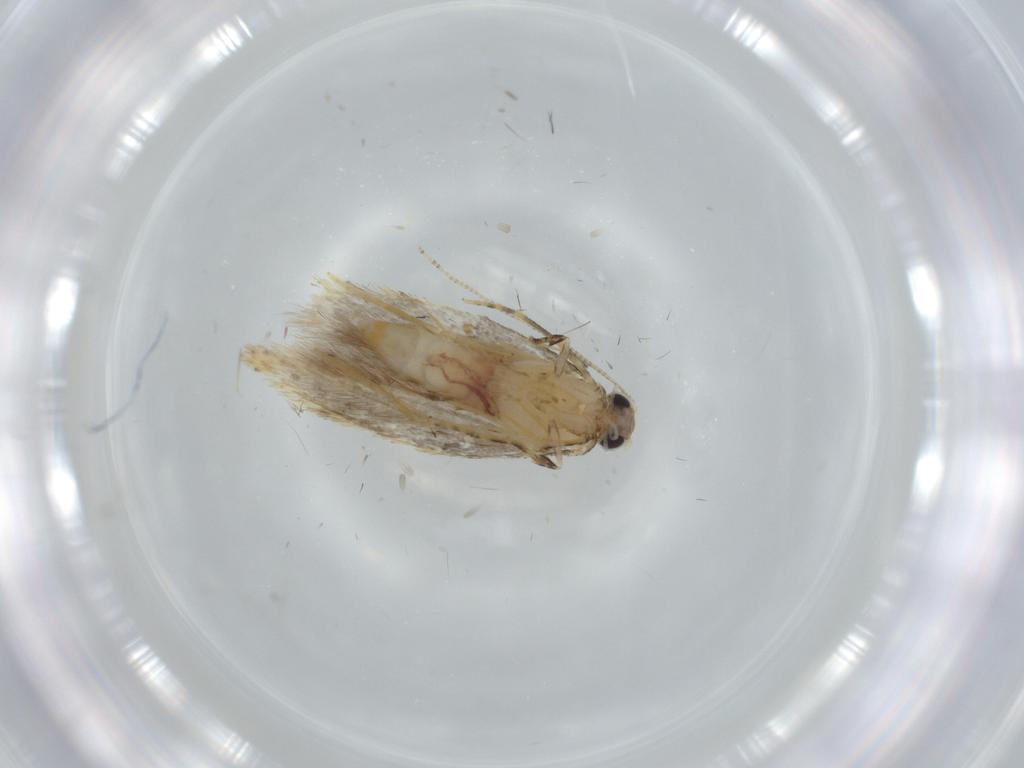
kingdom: Animalia
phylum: Arthropoda
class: Insecta
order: Lepidoptera
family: Tineidae
